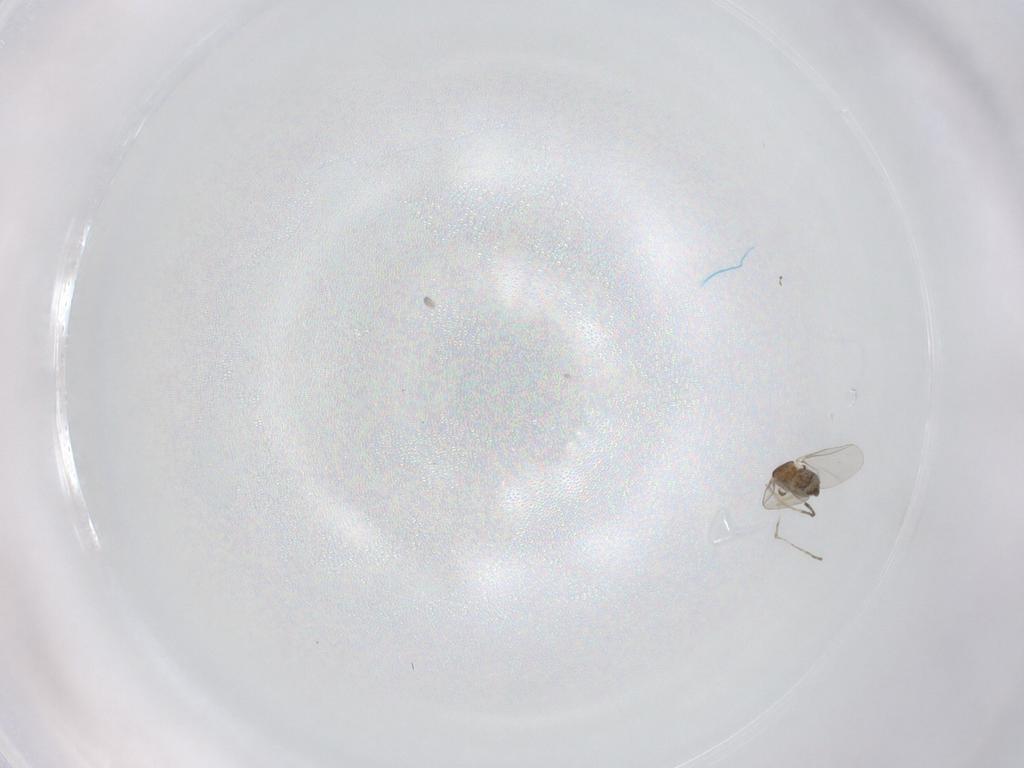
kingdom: Animalia
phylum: Arthropoda
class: Insecta
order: Diptera
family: Cecidomyiidae
